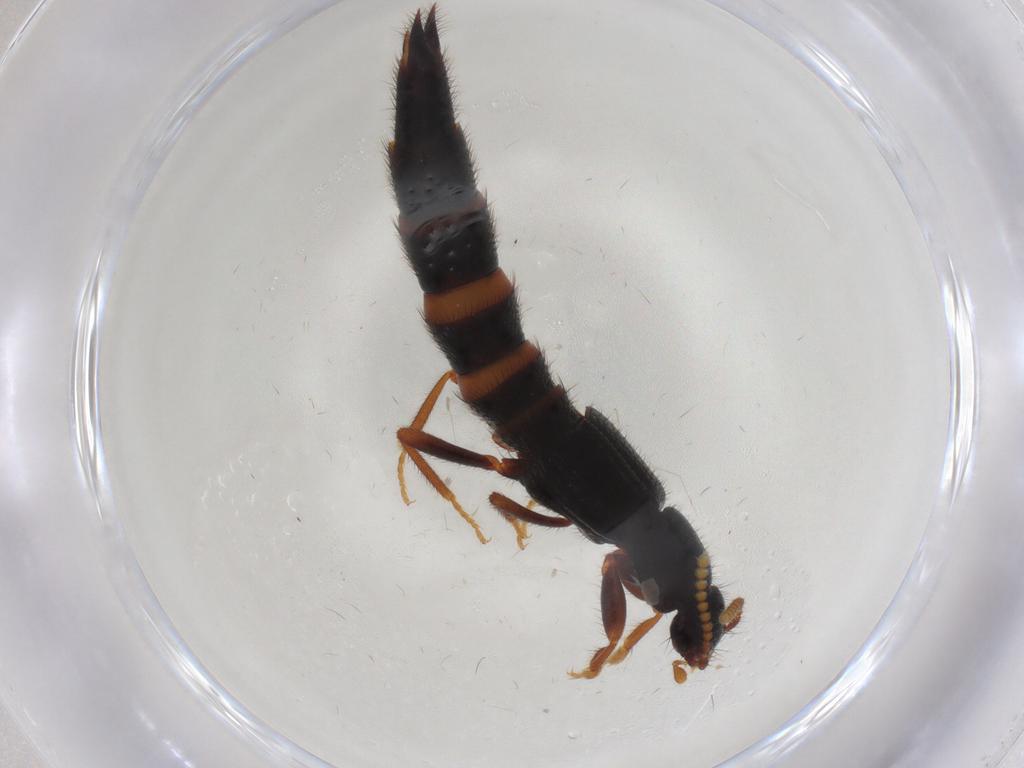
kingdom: Animalia
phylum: Arthropoda
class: Insecta
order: Coleoptera
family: Staphylinidae
